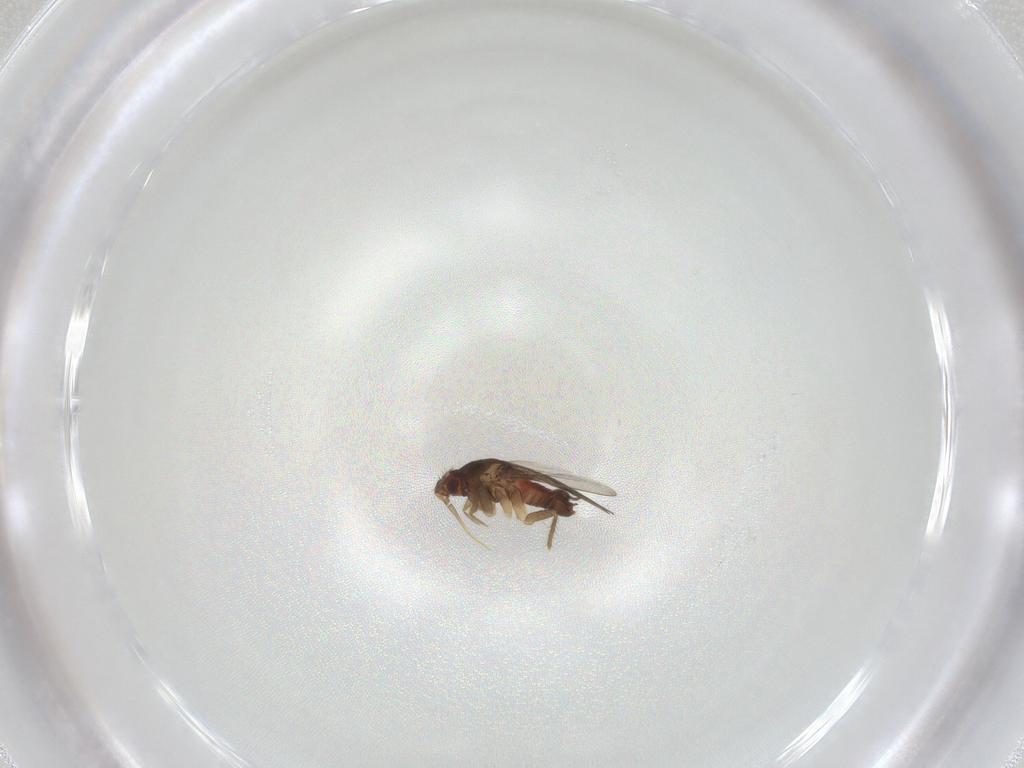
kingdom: Animalia
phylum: Arthropoda
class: Insecta
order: Hemiptera
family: Ceratocombidae
